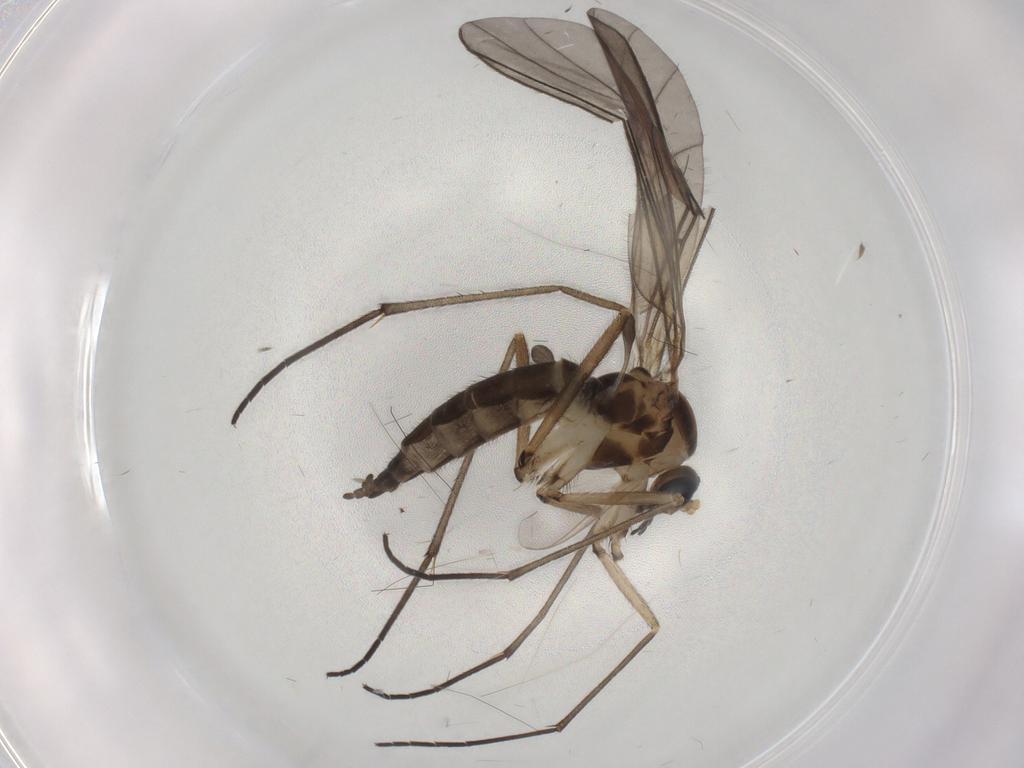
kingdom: Animalia
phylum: Arthropoda
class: Insecta
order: Diptera
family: Sciaridae
